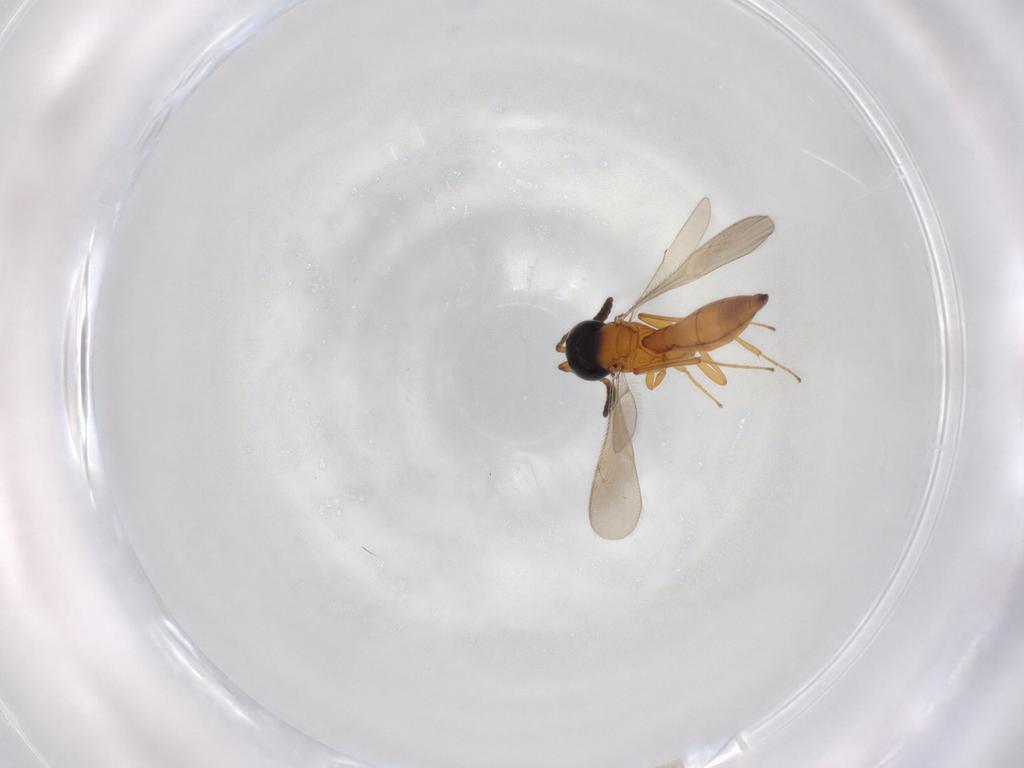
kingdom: Animalia
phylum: Arthropoda
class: Insecta
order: Hymenoptera
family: Scelionidae
